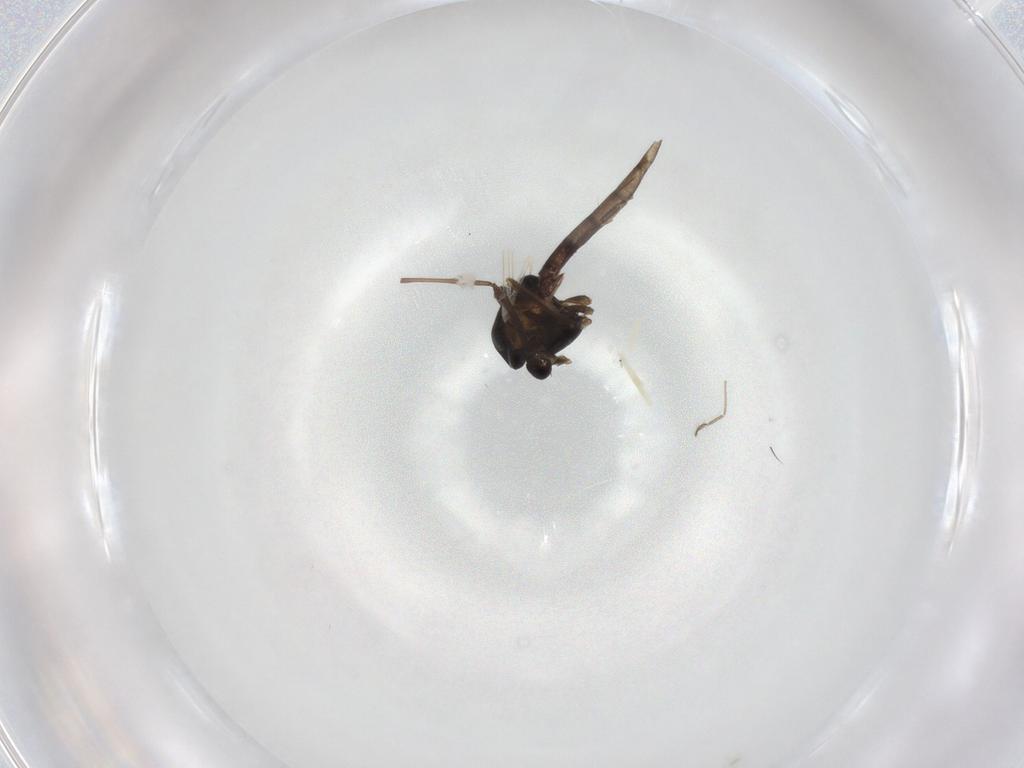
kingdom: Animalia
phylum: Arthropoda
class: Insecta
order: Diptera
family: Chironomidae
